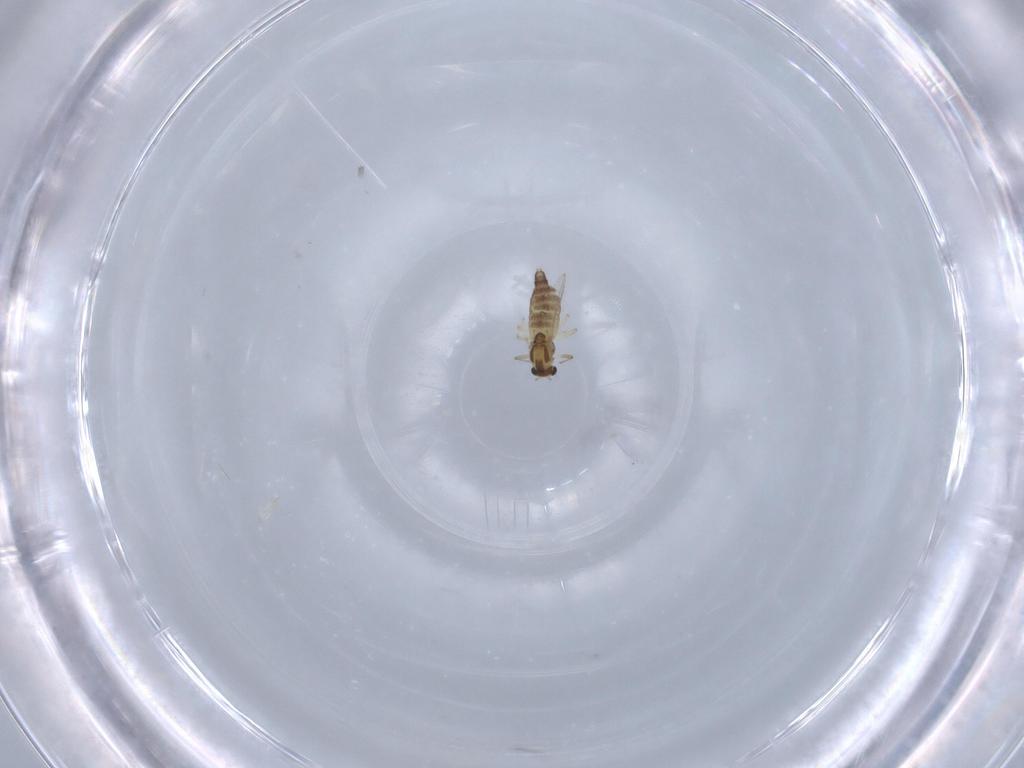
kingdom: Animalia
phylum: Arthropoda
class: Insecta
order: Diptera
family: Chironomidae
